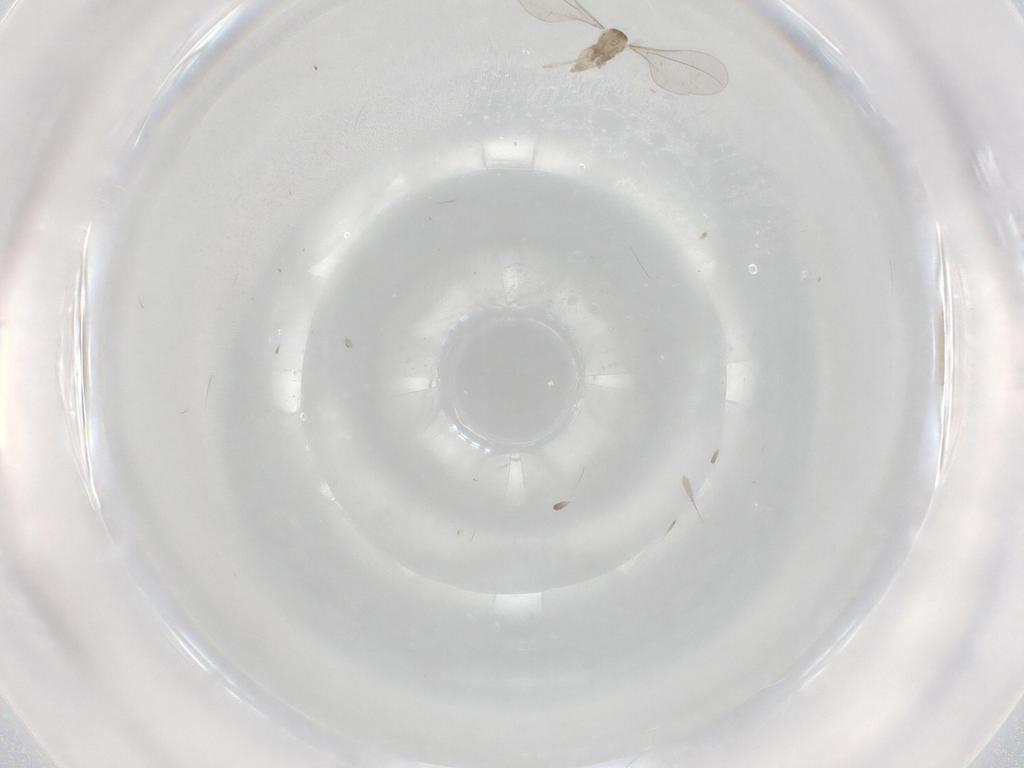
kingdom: Animalia
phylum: Arthropoda
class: Insecta
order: Diptera
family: Cecidomyiidae
